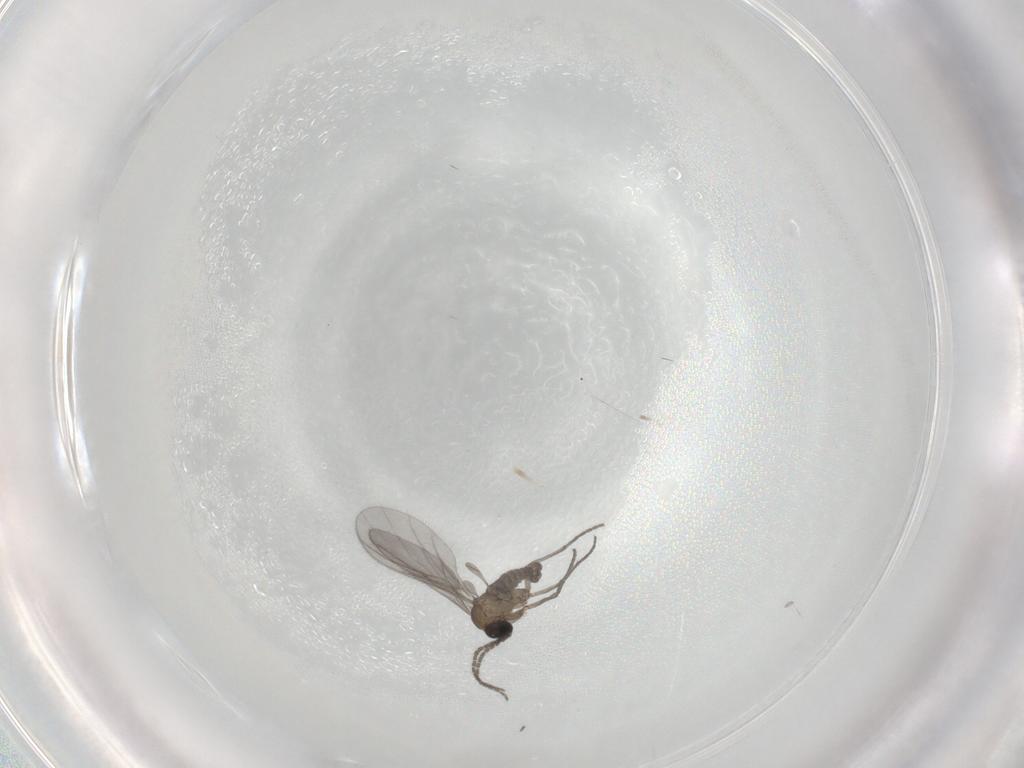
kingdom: Animalia
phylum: Arthropoda
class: Insecta
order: Diptera
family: Sciaridae
